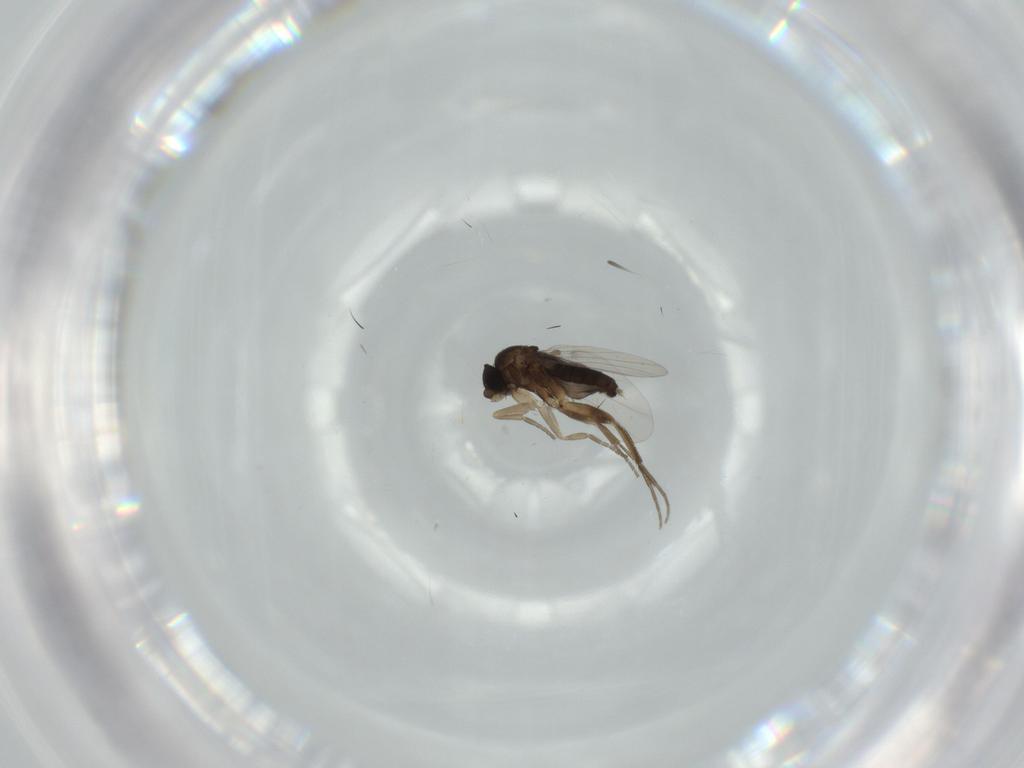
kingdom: Animalia
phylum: Arthropoda
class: Insecta
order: Diptera
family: Phoridae
